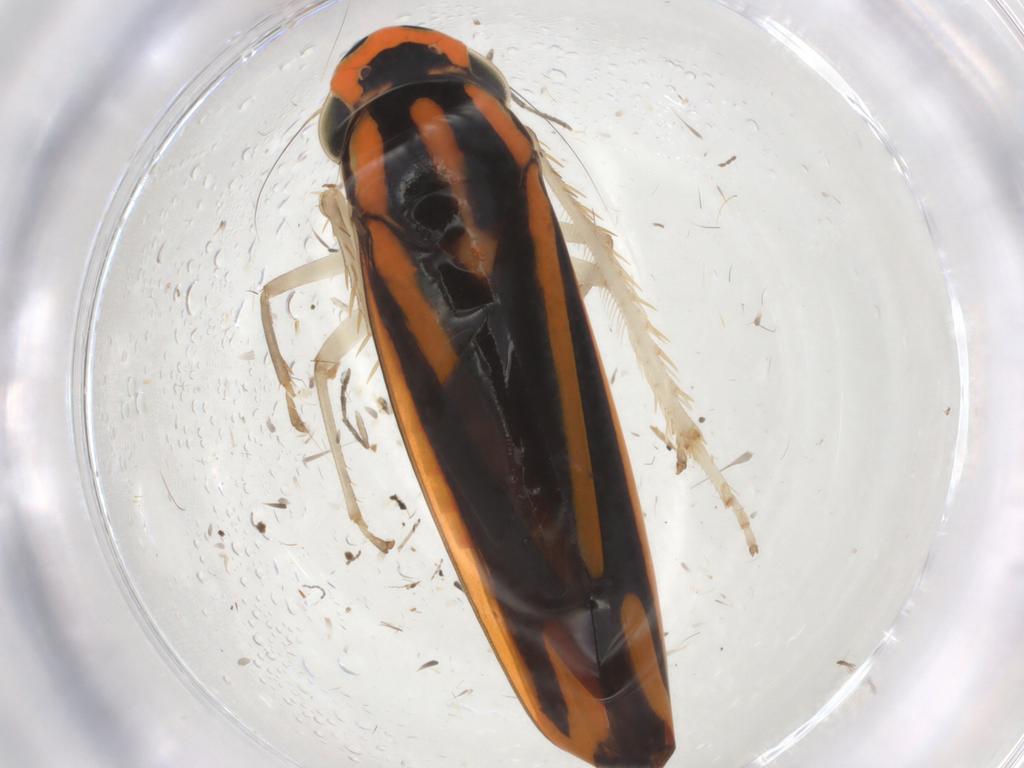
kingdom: Animalia
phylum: Arthropoda
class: Insecta
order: Hemiptera
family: Cicadellidae
